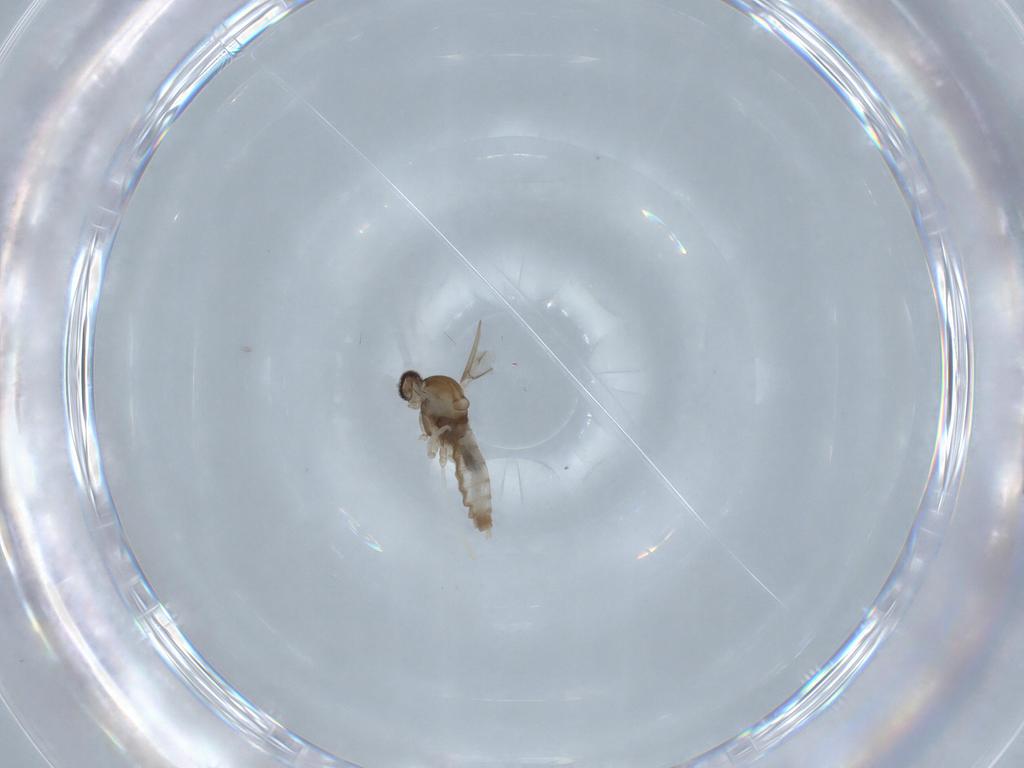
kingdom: Animalia
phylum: Arthropoda
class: Insecta
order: Diptera
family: Cecidomyiidae
